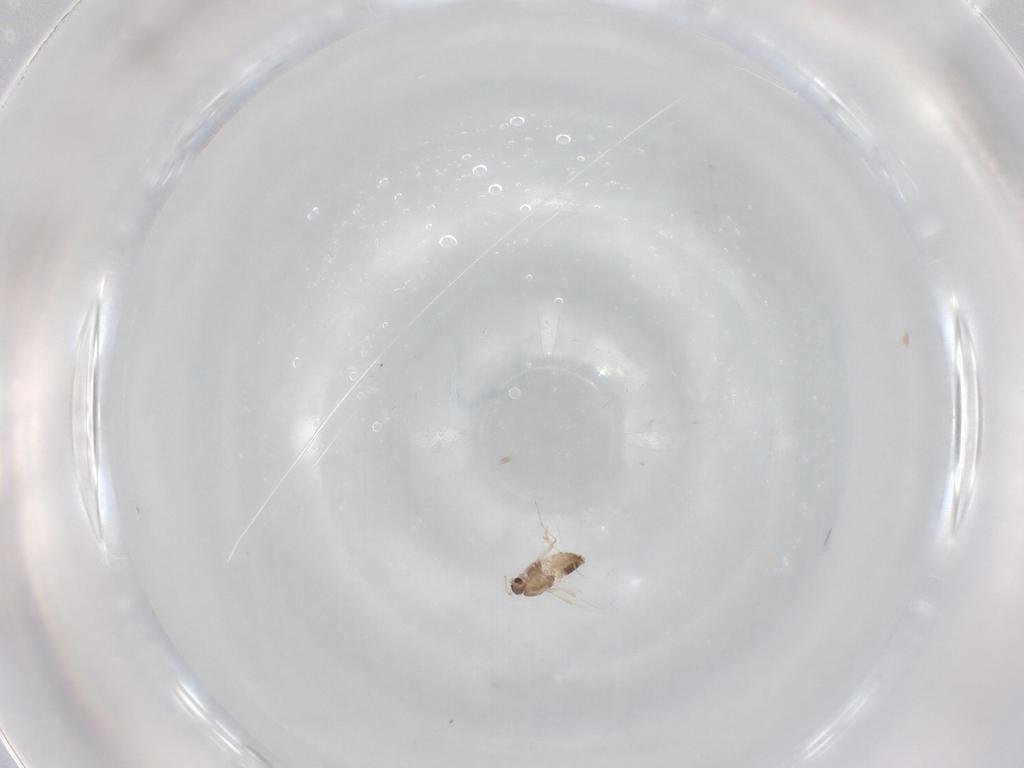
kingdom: Animalia
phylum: Arthropoda
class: Insecta
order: Diptera
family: Chironomidae
